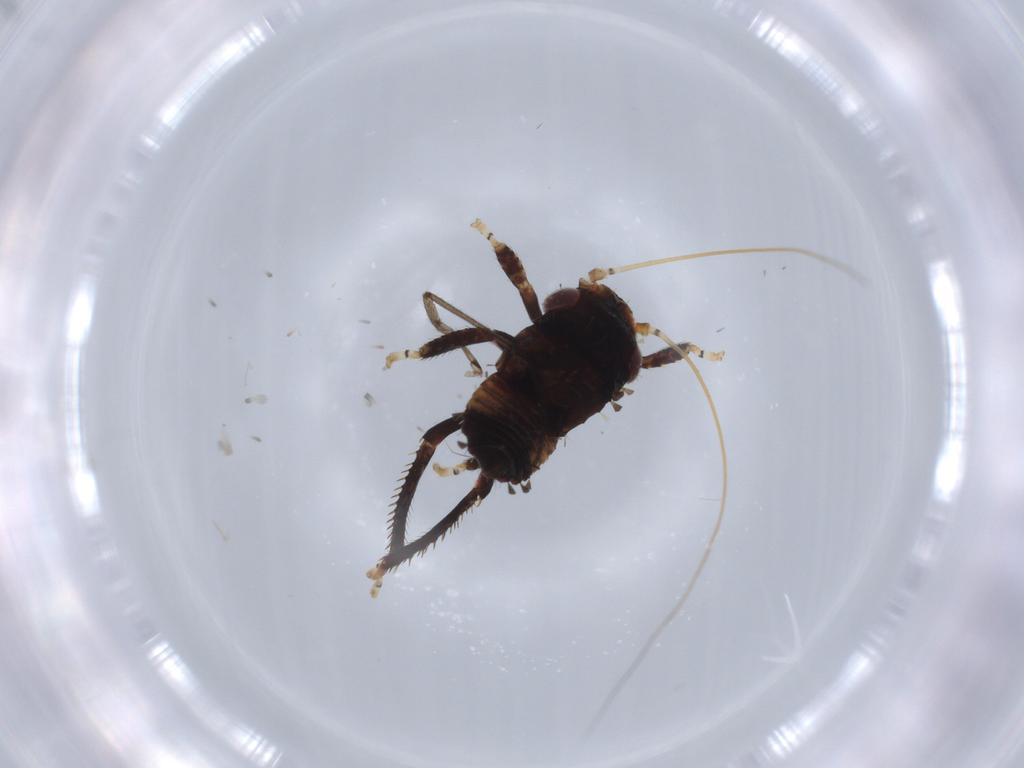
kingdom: Animalia
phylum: Arthropoda
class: Insecta
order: Hemiptera
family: Cicadellidae
